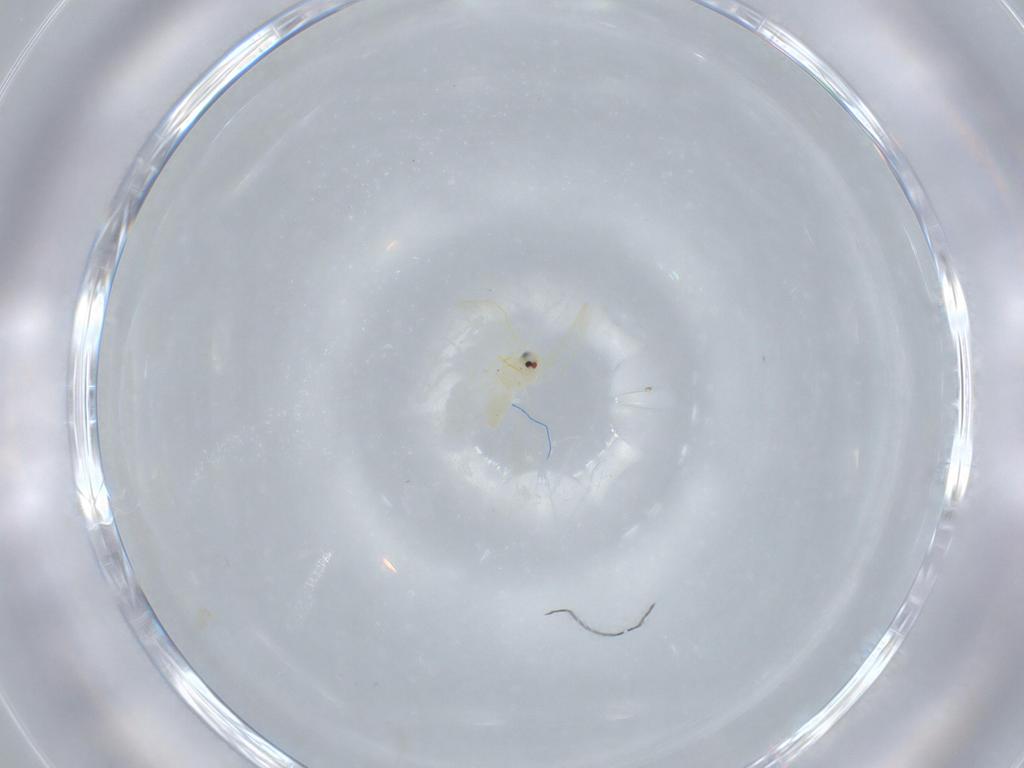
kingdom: Animalia
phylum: Arthropoda
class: Insecta
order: Hemiptera
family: Aleyrodidae
